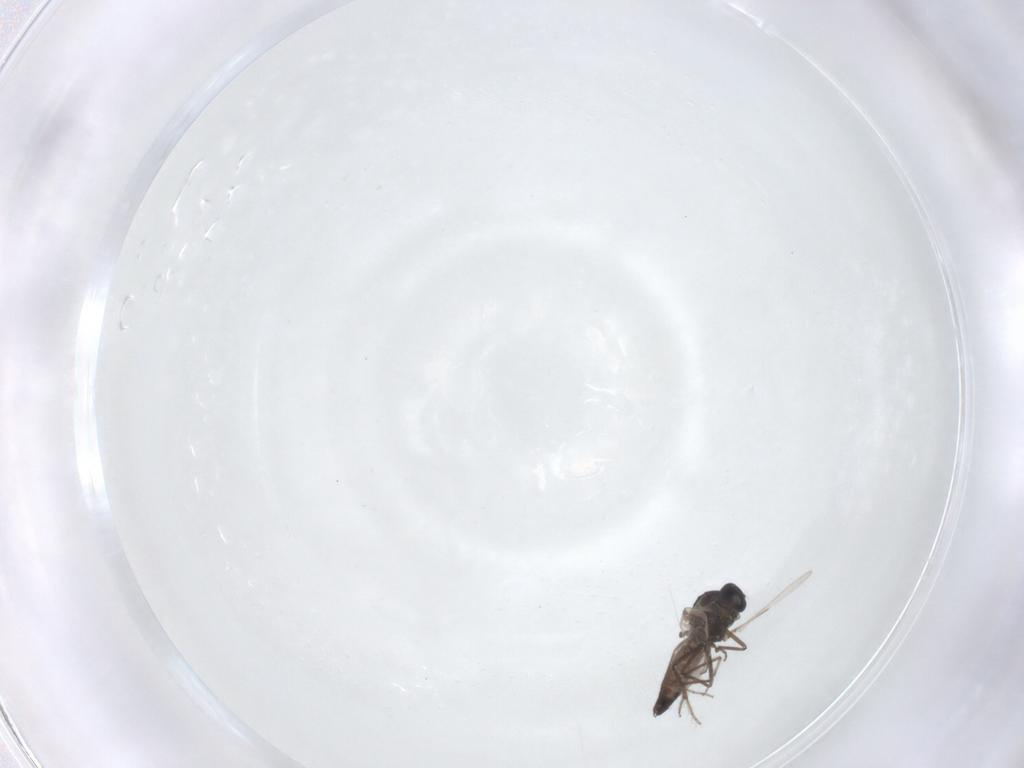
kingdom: Animalia
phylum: Arthropoda
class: Insecta
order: Diptera
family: Ceratopogonidae
